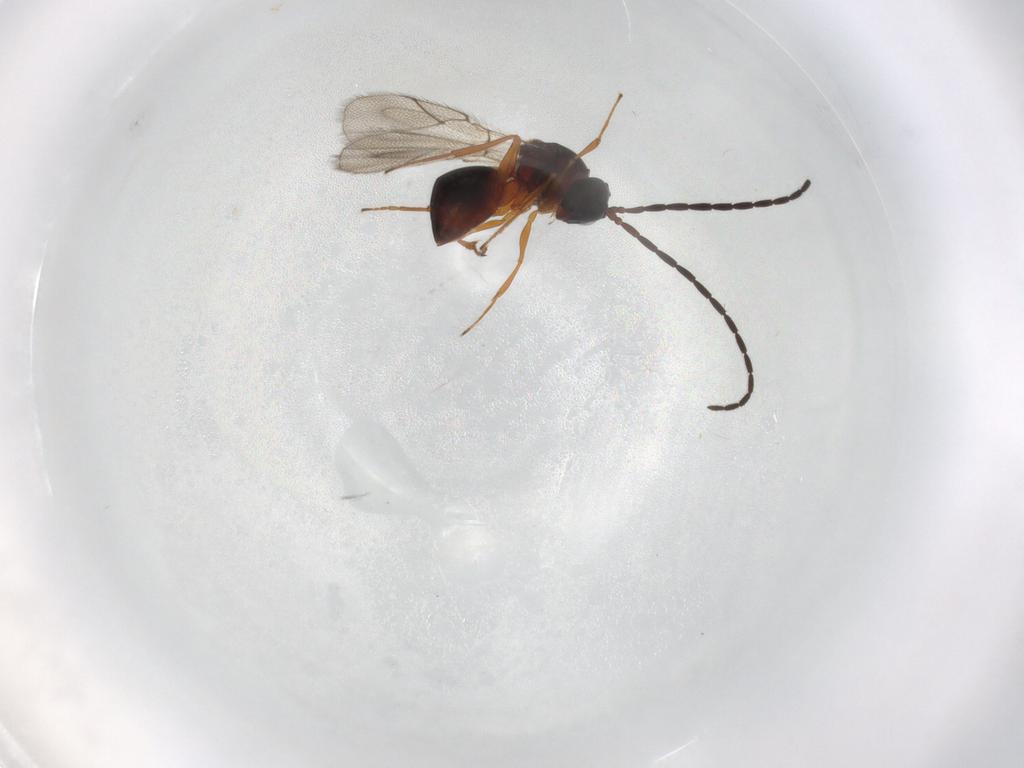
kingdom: Animalia
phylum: Arthropoda
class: Insecta
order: Hymenoptera
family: Figitidae
